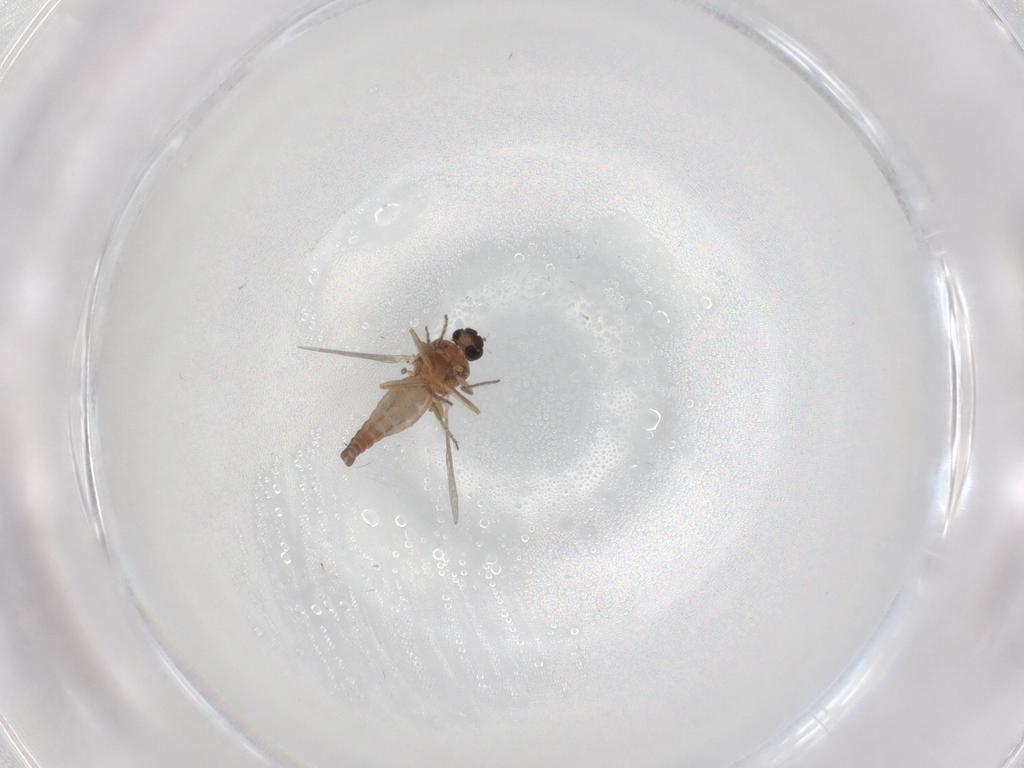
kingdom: Animalia
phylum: Arthropoda
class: Insecta
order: Diptera
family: Ceratopogonidae
